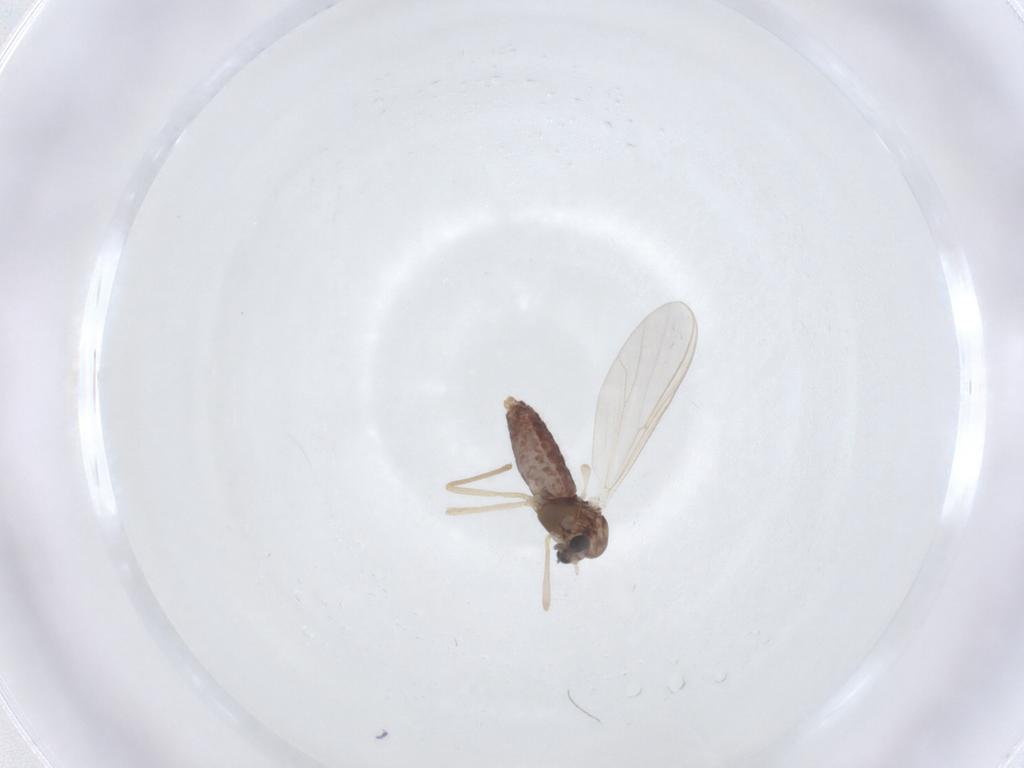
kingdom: Animalia
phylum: Arthropoda
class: Insecta
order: Diptera
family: Chironomidae
